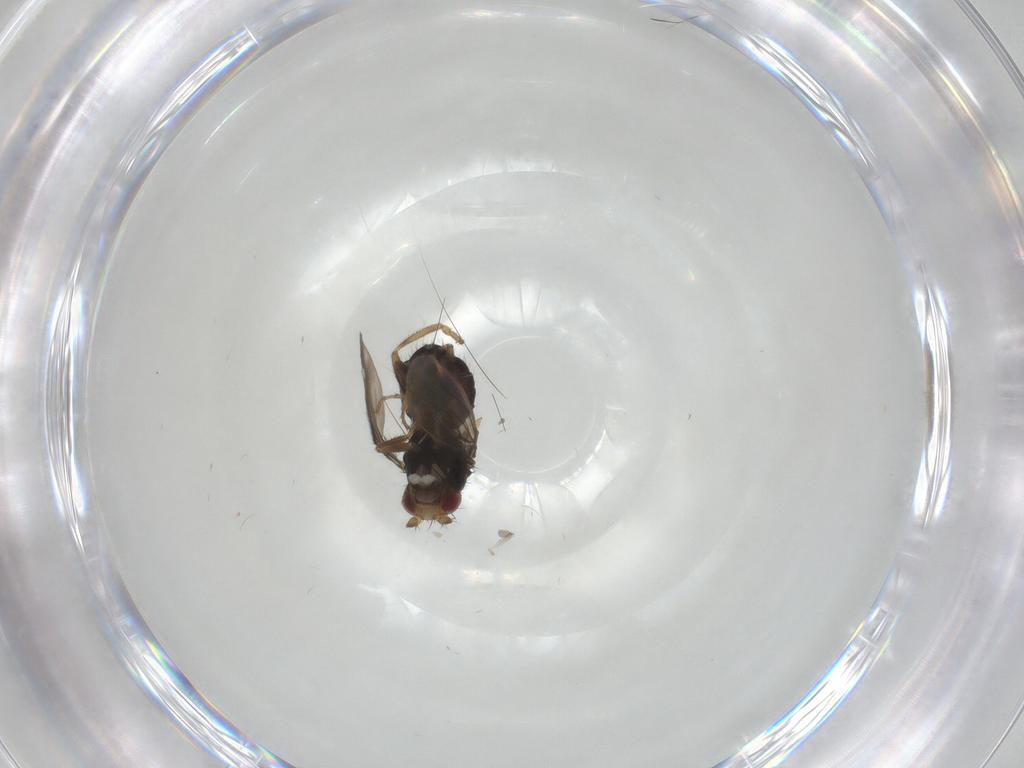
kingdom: Animalia
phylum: Arthropoda
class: Insecta
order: Diptera
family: Sphaeroceridae
